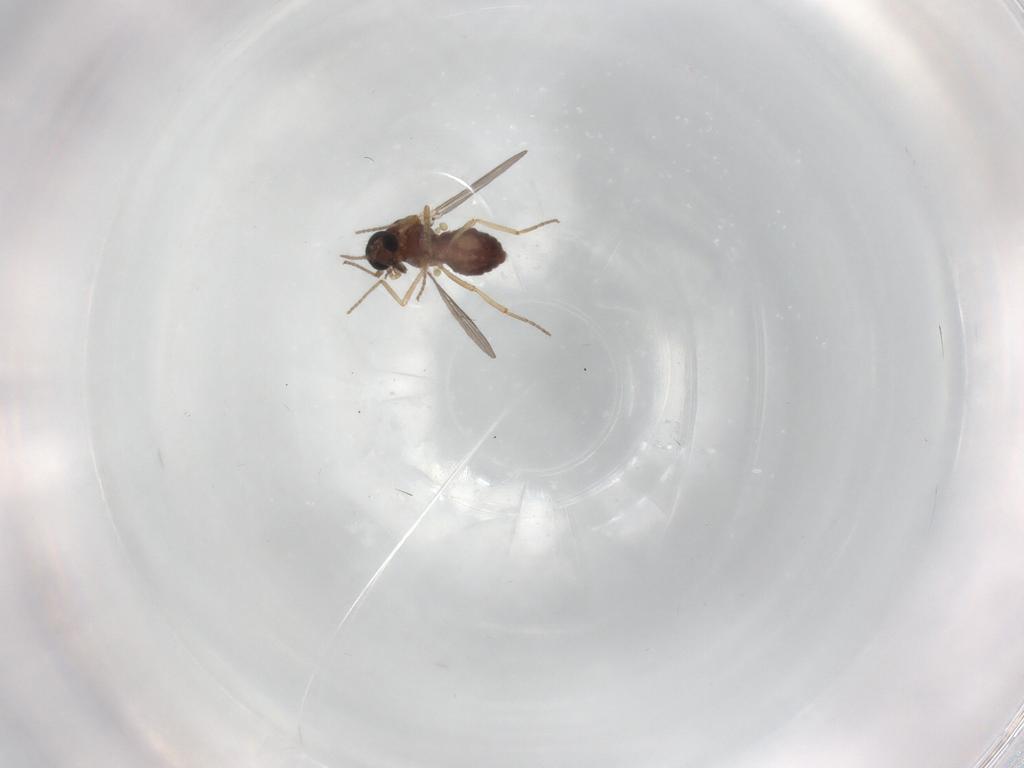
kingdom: Animalia
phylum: Arthropoda
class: Insecta
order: Diptera
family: Ceratopogonidae
